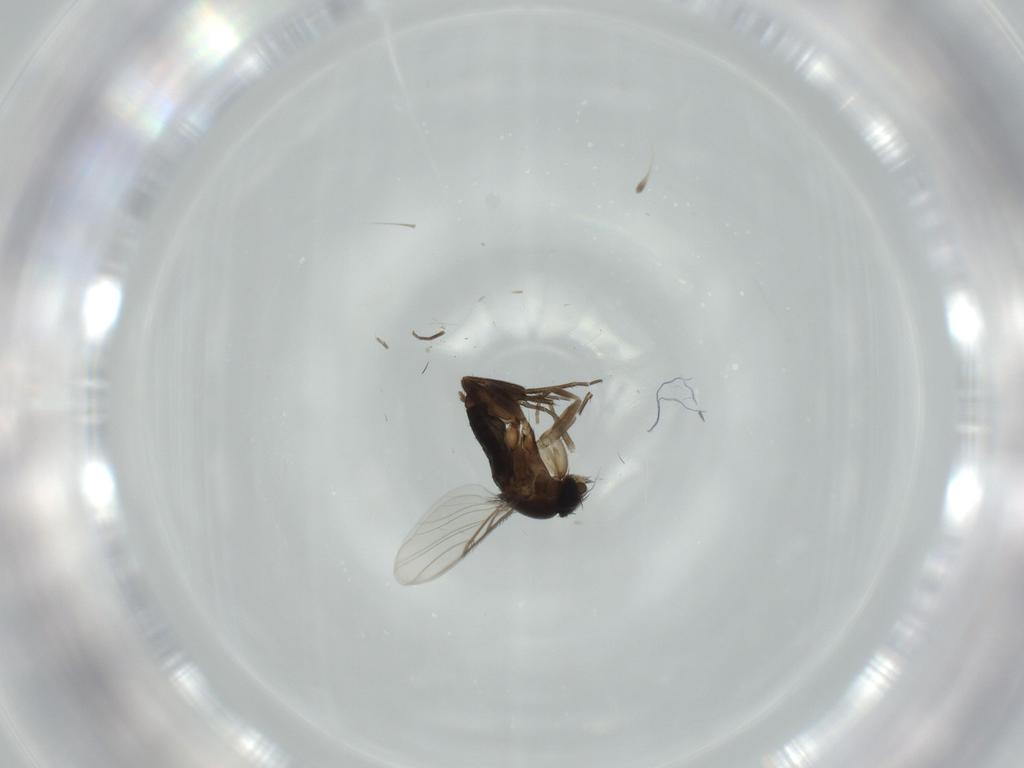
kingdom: Animalia
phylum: Arthropoda
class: Insecta
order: Diptera
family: Phoridae
